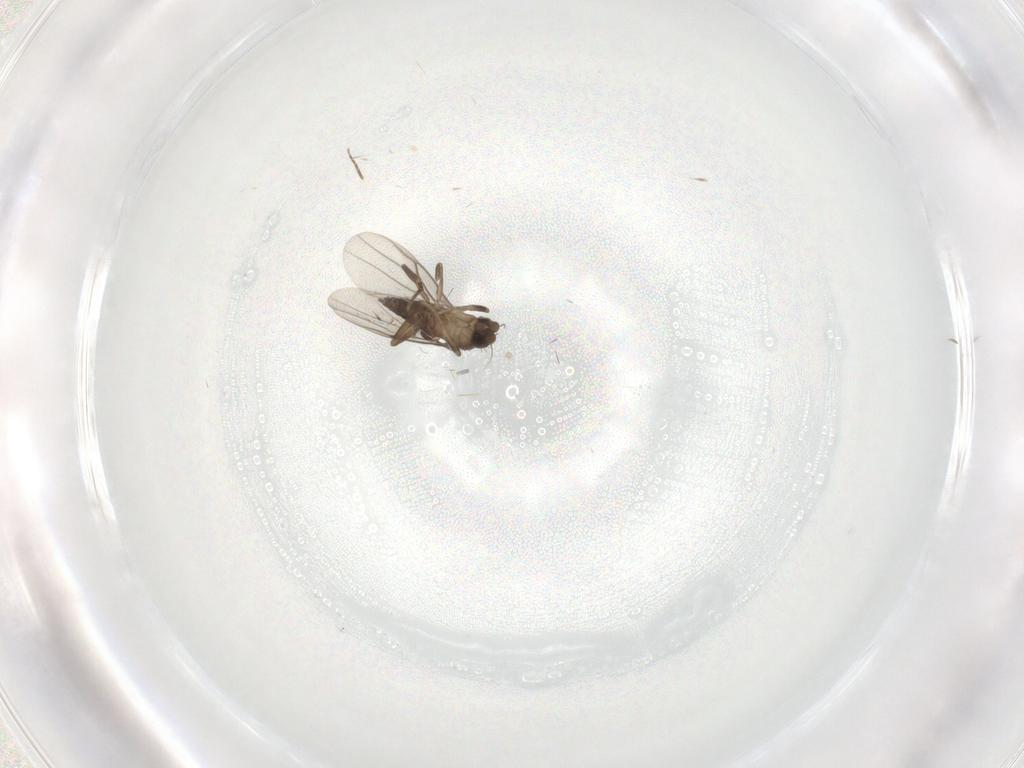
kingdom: Animalia
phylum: Arthropoda
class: Insecta
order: Diptera
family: Phoridae
